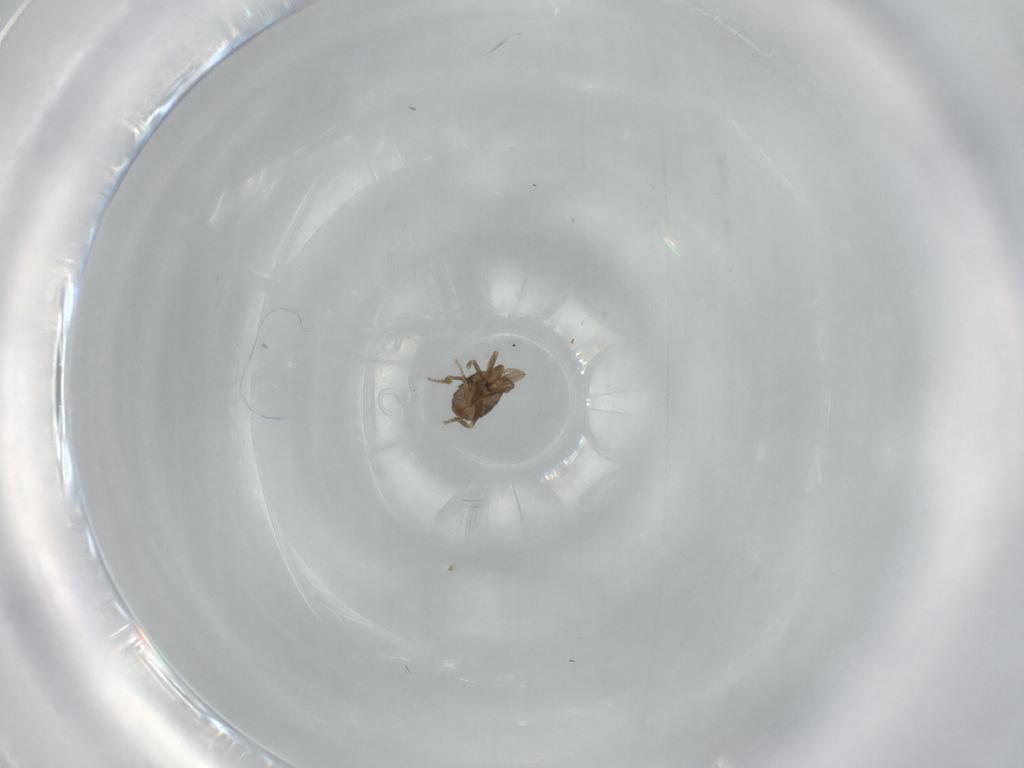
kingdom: Animalia
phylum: Arthropoda
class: Insecta
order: Diptera
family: Phoridae
